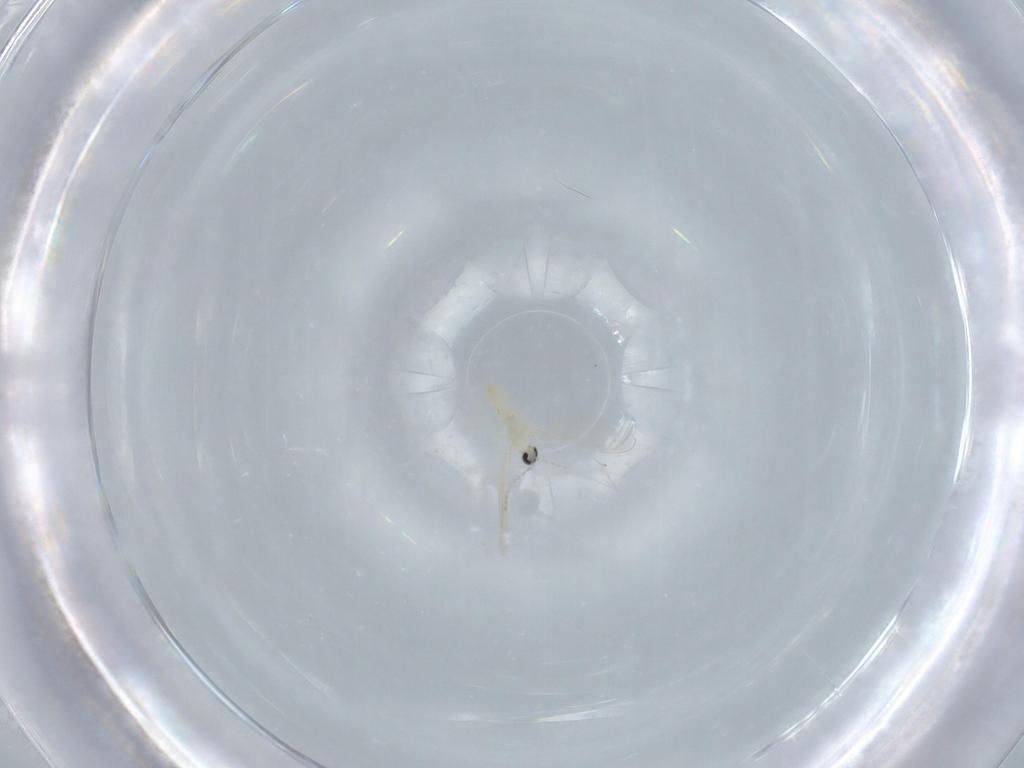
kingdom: Animalia
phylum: Arthropoda
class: Insecta
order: Diptera
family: Cecidomyiidae
